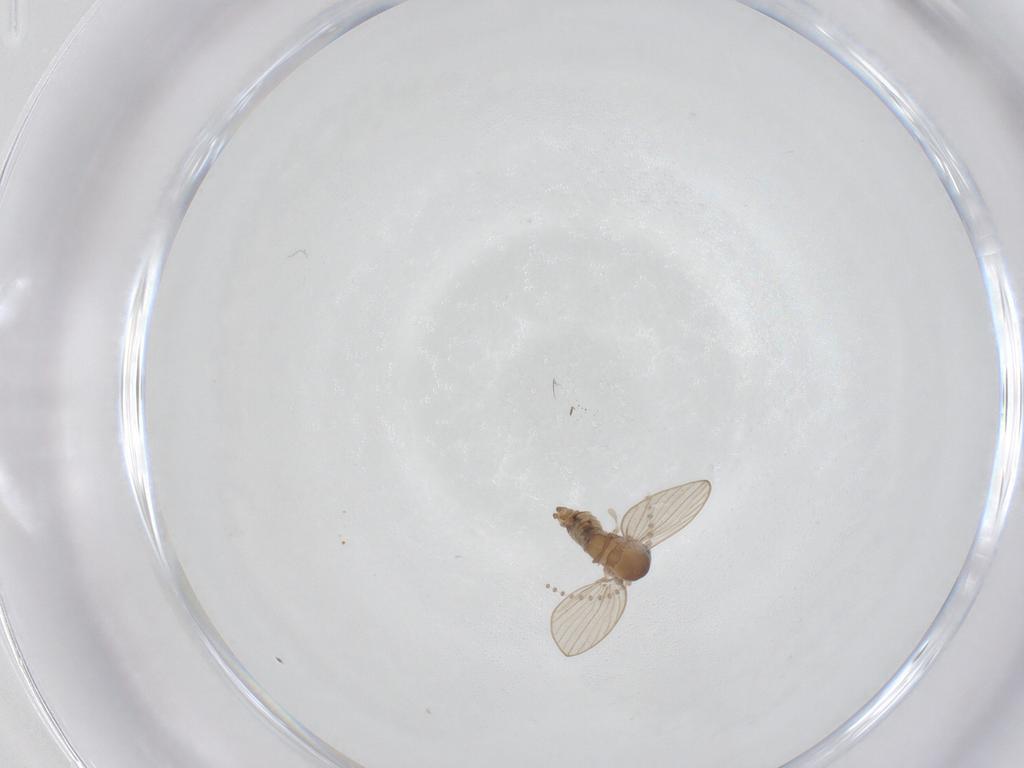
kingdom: Animalia
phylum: Arthropoda
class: Insecta
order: Diptera
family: Psychodidae
